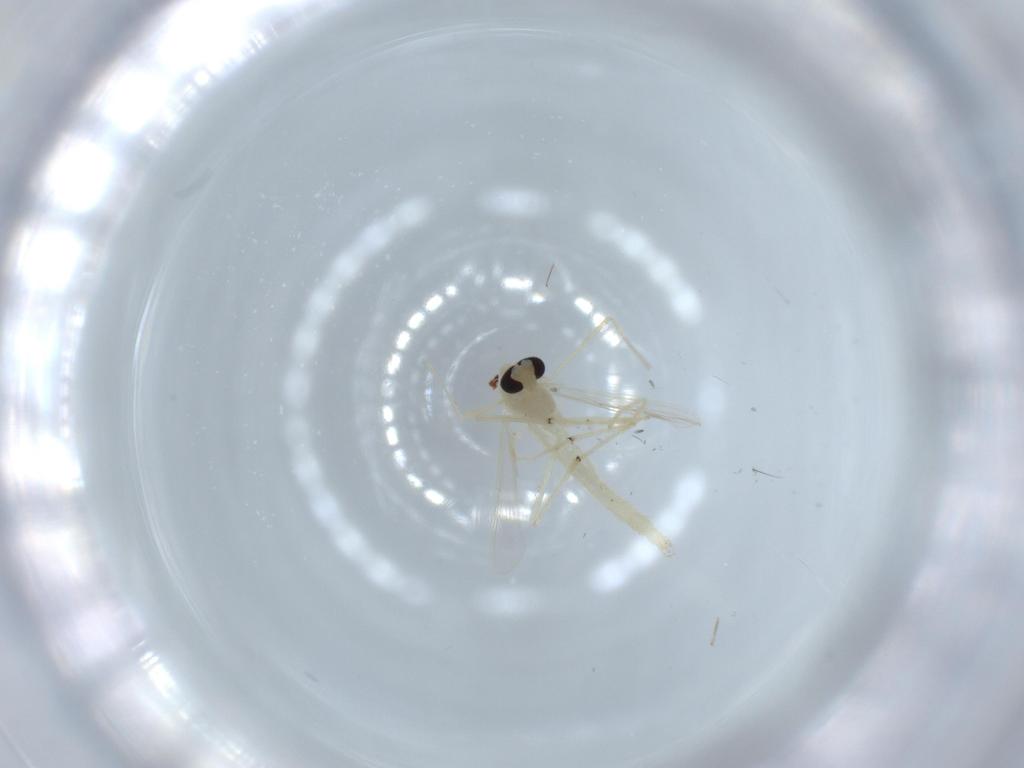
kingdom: Animalia
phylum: Arthropoda
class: Insecta
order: Diptera
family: Chironomidae
